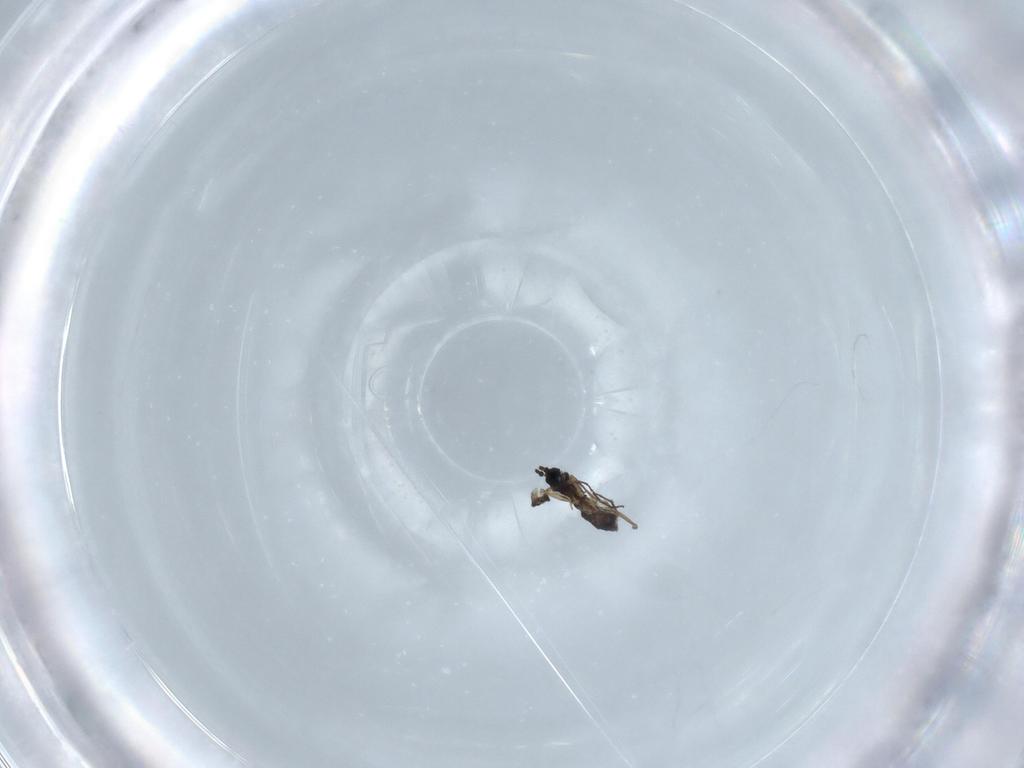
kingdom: Animalia
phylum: Arthropoda
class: Insecta
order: Diptera
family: Sciaridae
